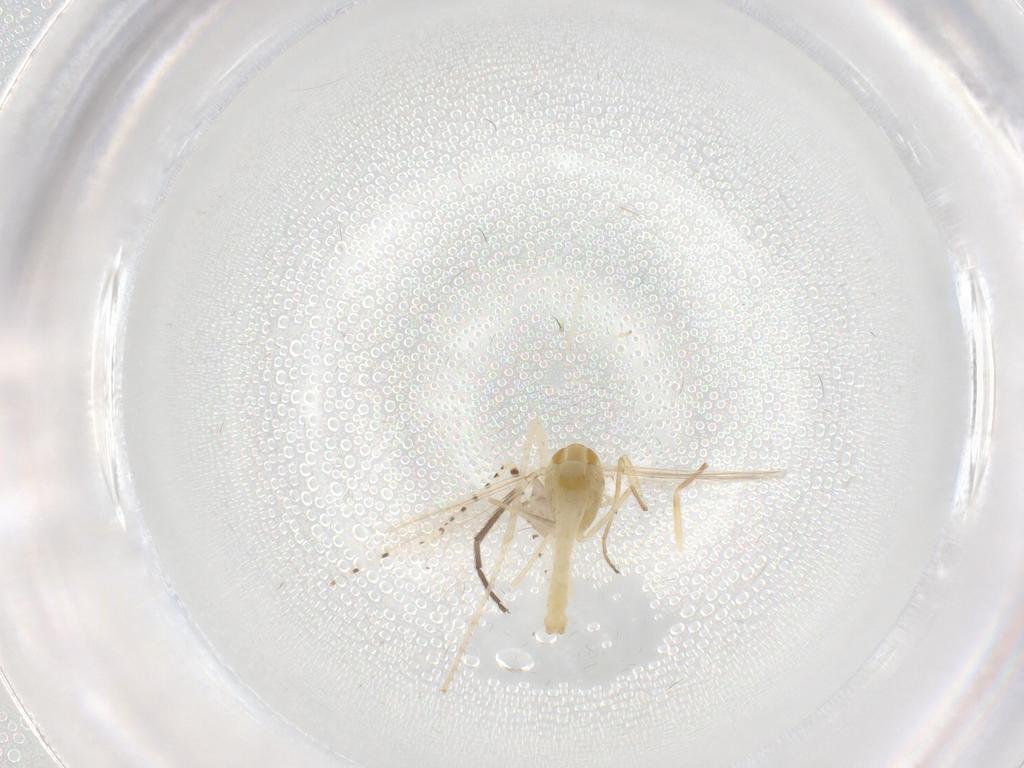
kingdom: Animalia
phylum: Arthropoda
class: Insecta
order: Diptera
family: Chironomidae
